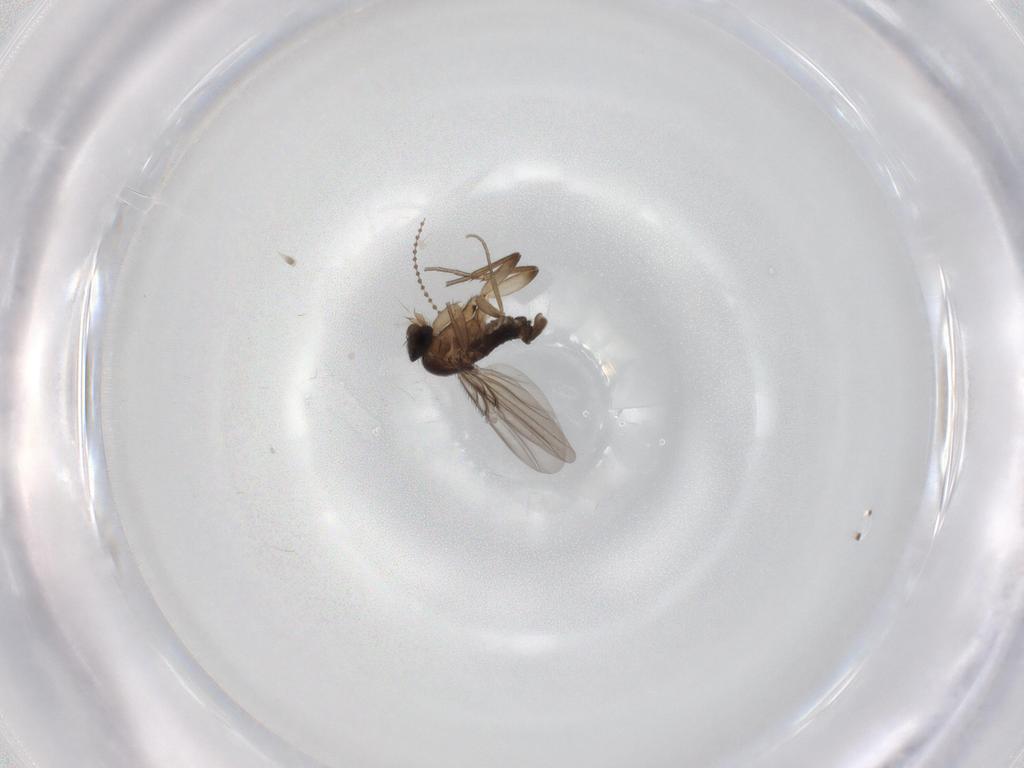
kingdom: Animalia
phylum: Arthropoda
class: Insecta
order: Diptera
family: Phoridae
